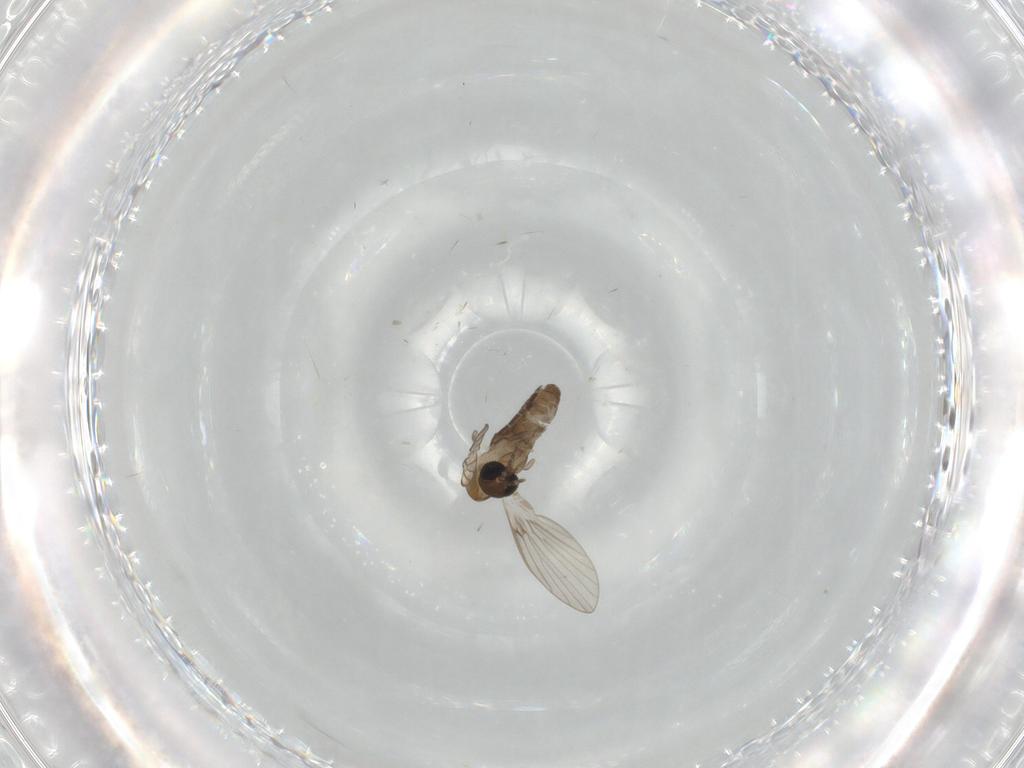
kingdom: Animalia
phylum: Arthropoda
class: Insecta
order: Diptera
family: Psychodidae
